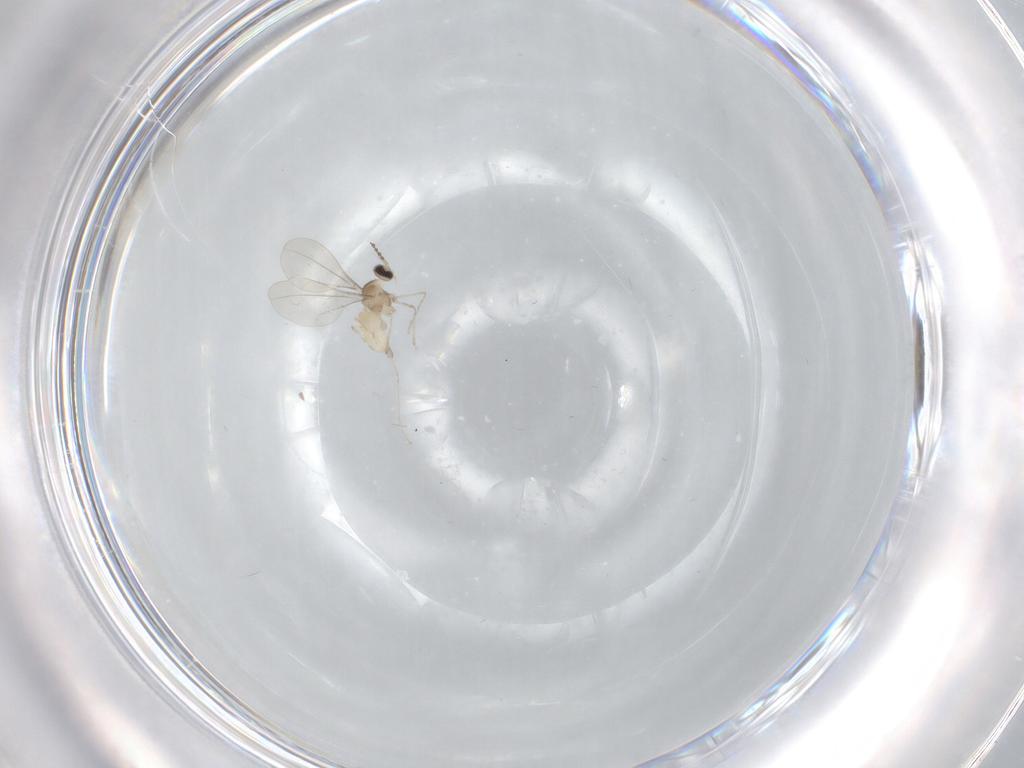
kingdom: Animalia
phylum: Arthropoda
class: Insecta
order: Diptera
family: Cecidomyiidae
